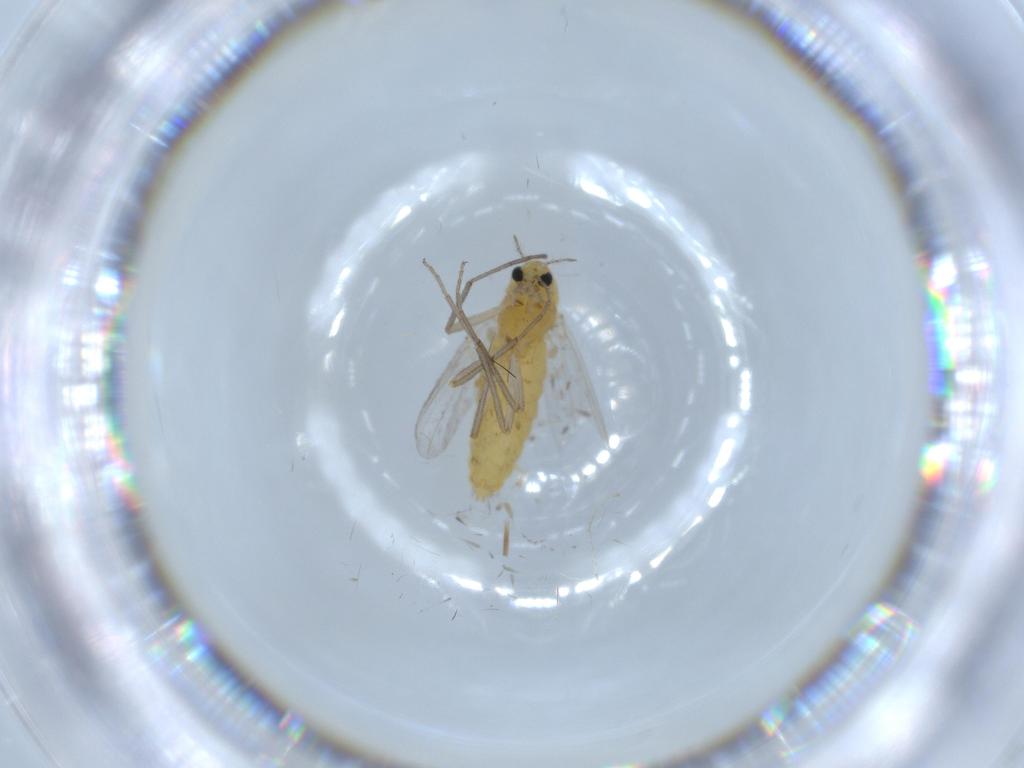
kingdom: Animalia
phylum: Arthropoda
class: Insecta
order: Diptera
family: Chironomidae
